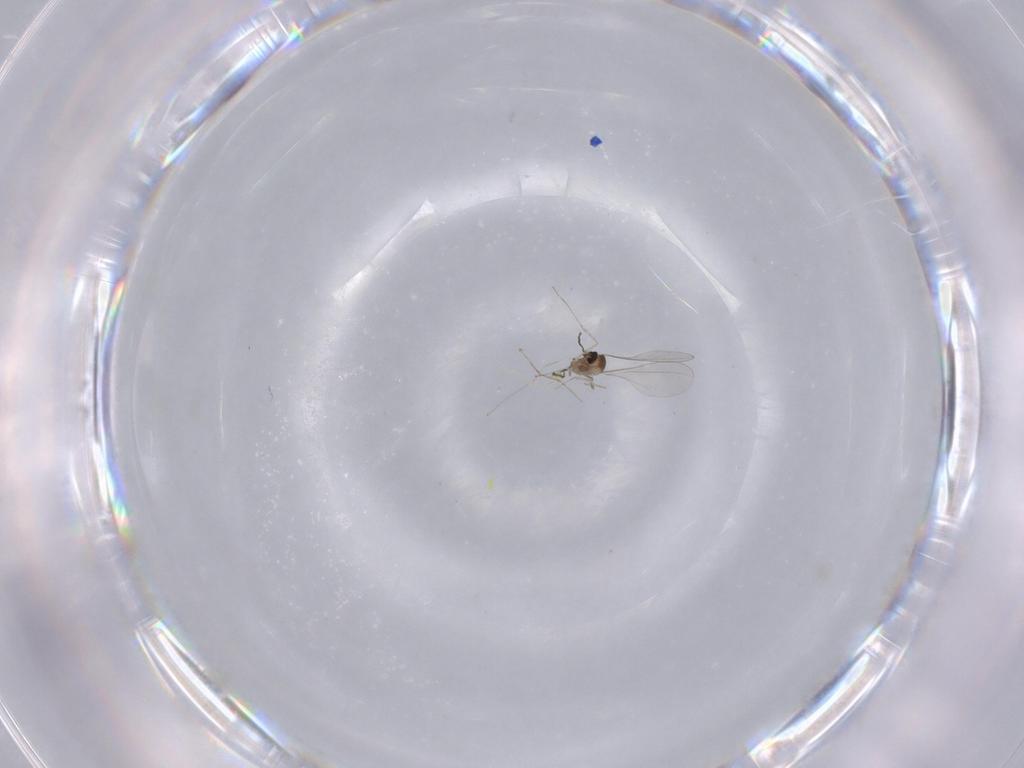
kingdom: Animalia
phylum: Arthropoda
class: Insecta
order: Diptera
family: Cecidomyiidae
